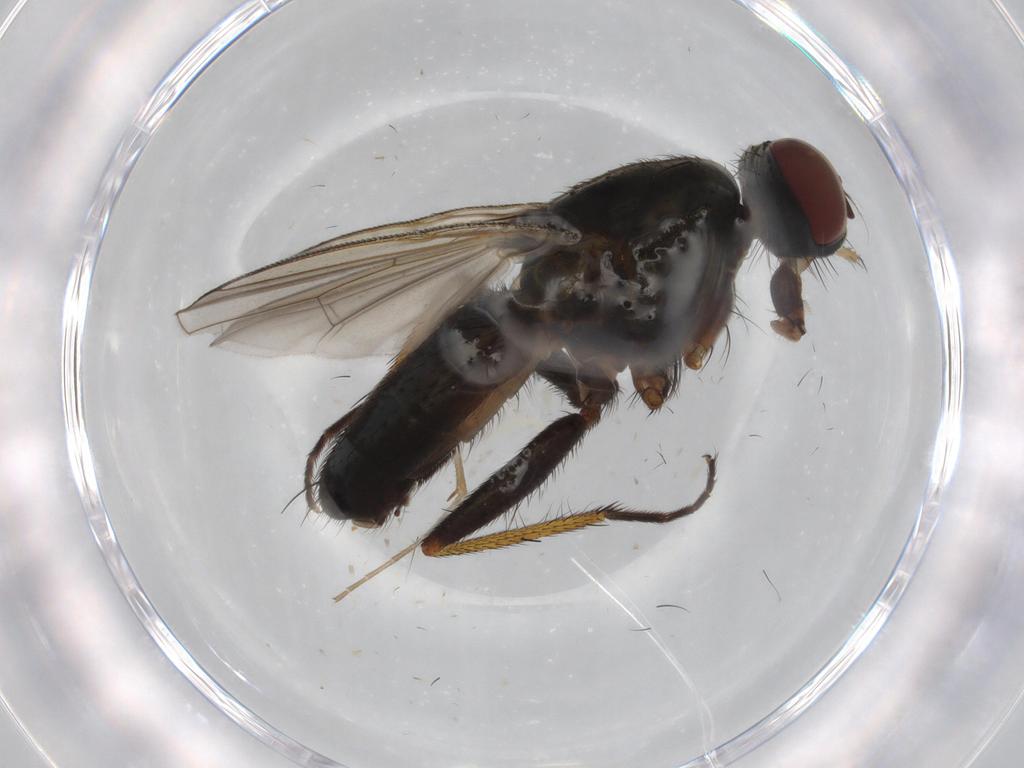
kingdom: Animalia
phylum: Arthropoda
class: Insecta
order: Diptera
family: Muscidae
